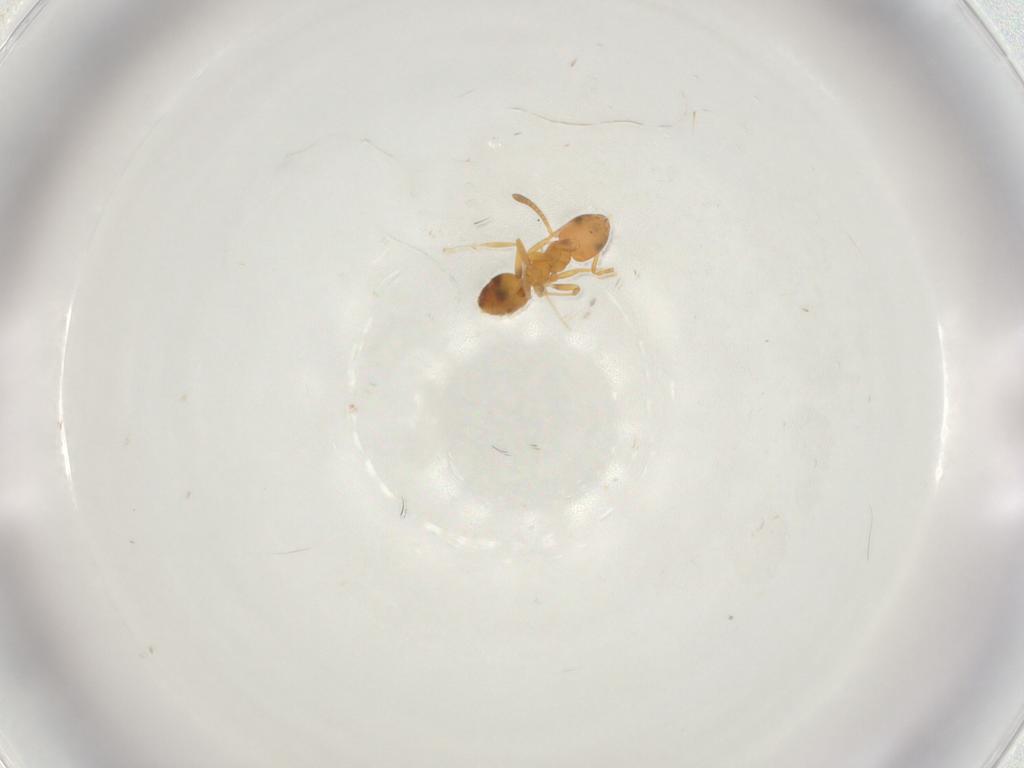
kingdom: Animalia
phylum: Arthropoda
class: Insecta
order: Hymenoptera
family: Formicidae
